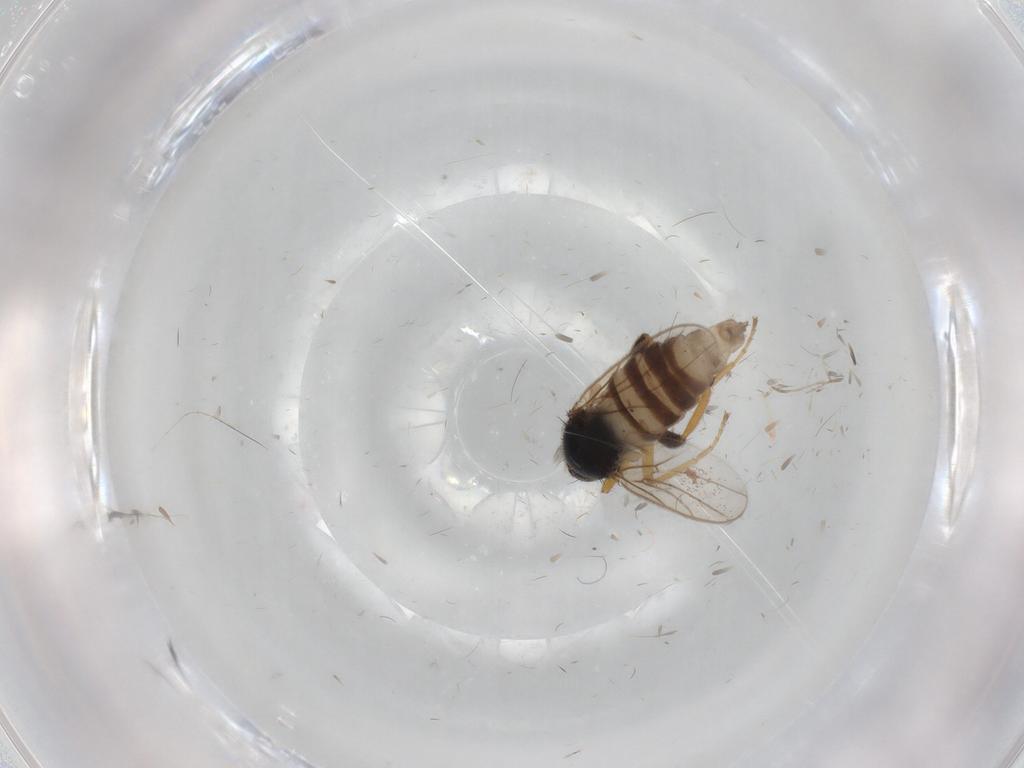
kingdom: Animalia
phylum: Arthropoda
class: Insecta
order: Diptera
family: Hybotidae
